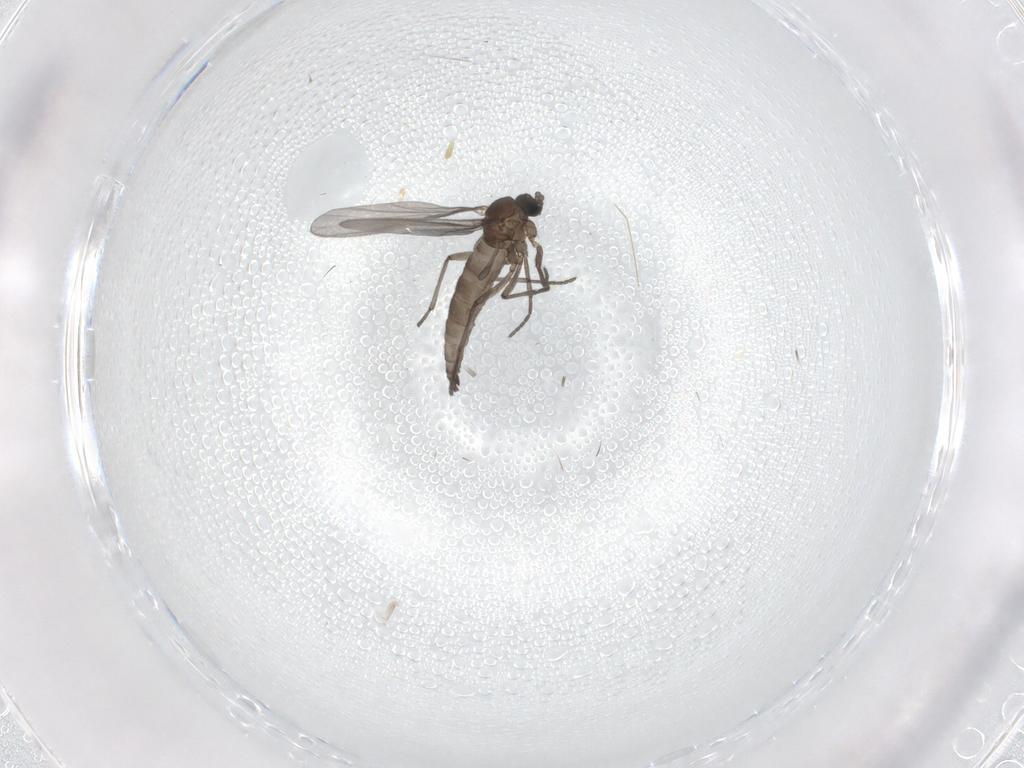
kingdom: Animalia
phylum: Arthropoda
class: Insecta
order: Diptera
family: Sciaridae
